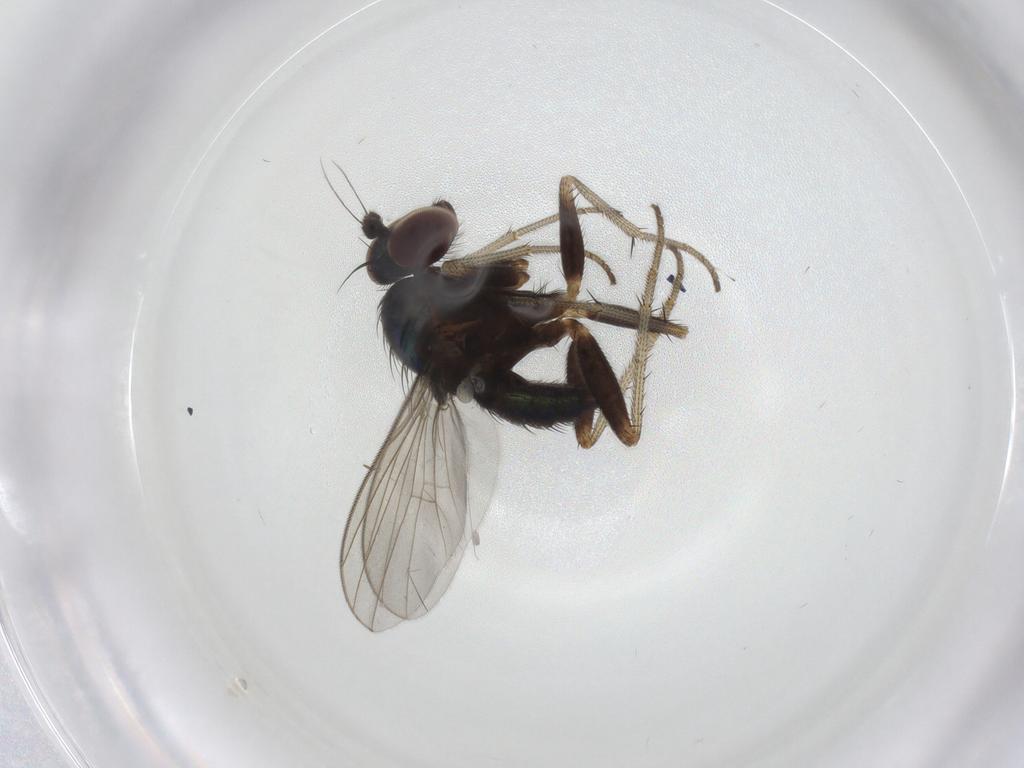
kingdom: Animalia
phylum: Arthropoda
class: Insecta
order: Diptera
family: Dolichopodidae
